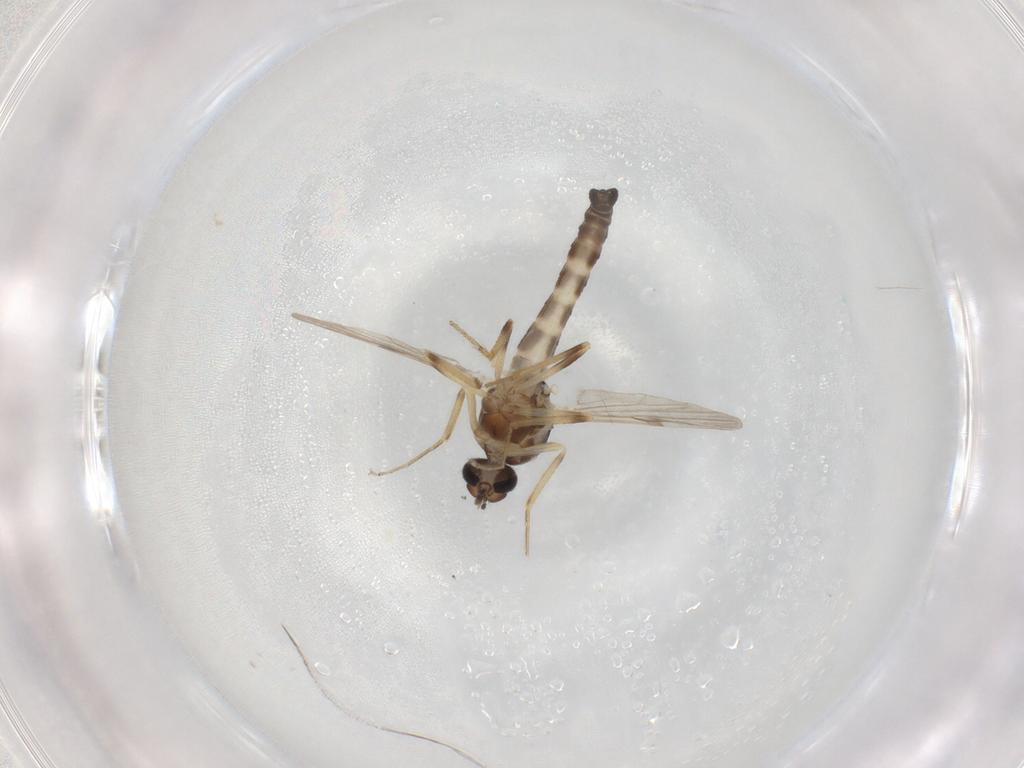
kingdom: Animalia
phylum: Arthropoda
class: Insecta
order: Diptera
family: Ceratopogonidae
